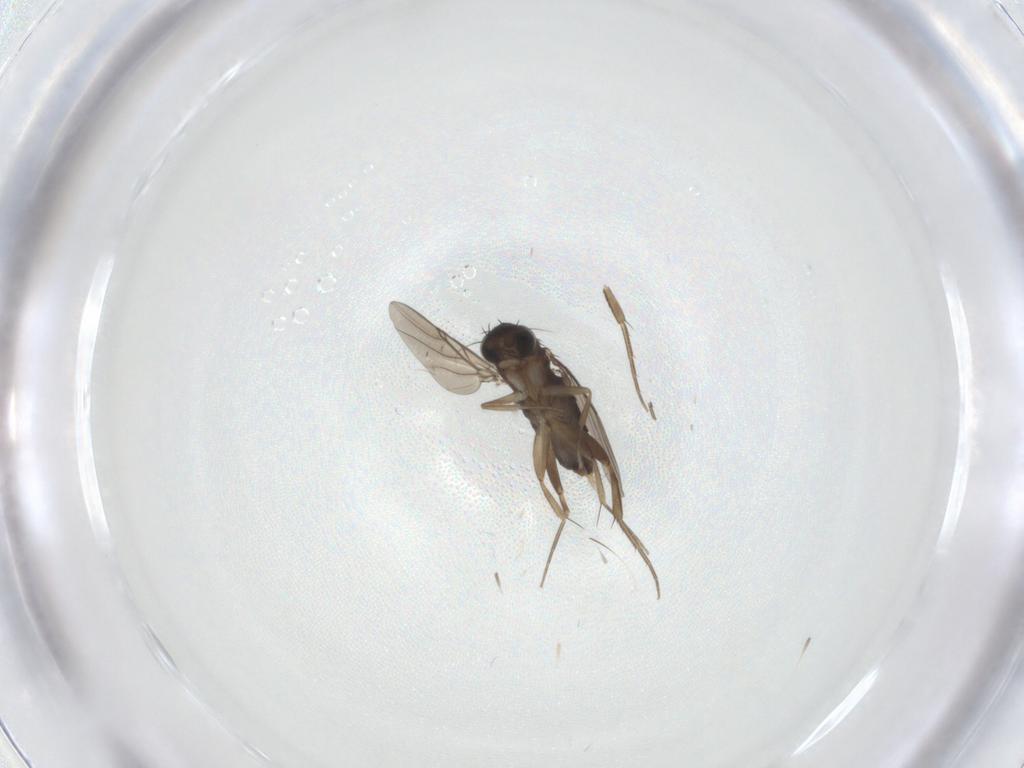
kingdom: Animalia
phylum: Arthropoda
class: Insecta
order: Diptera
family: Phoridae
